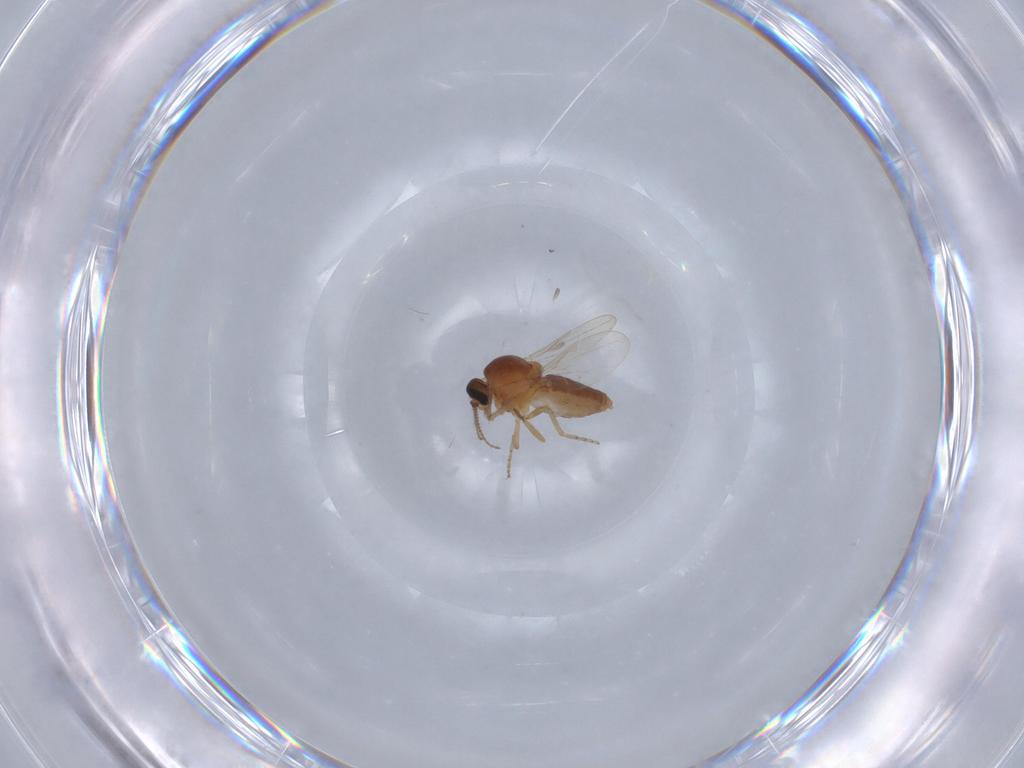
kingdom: Animalia
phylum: Arthropoda
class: Insecta
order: Diptera
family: Ceratopogonidae
